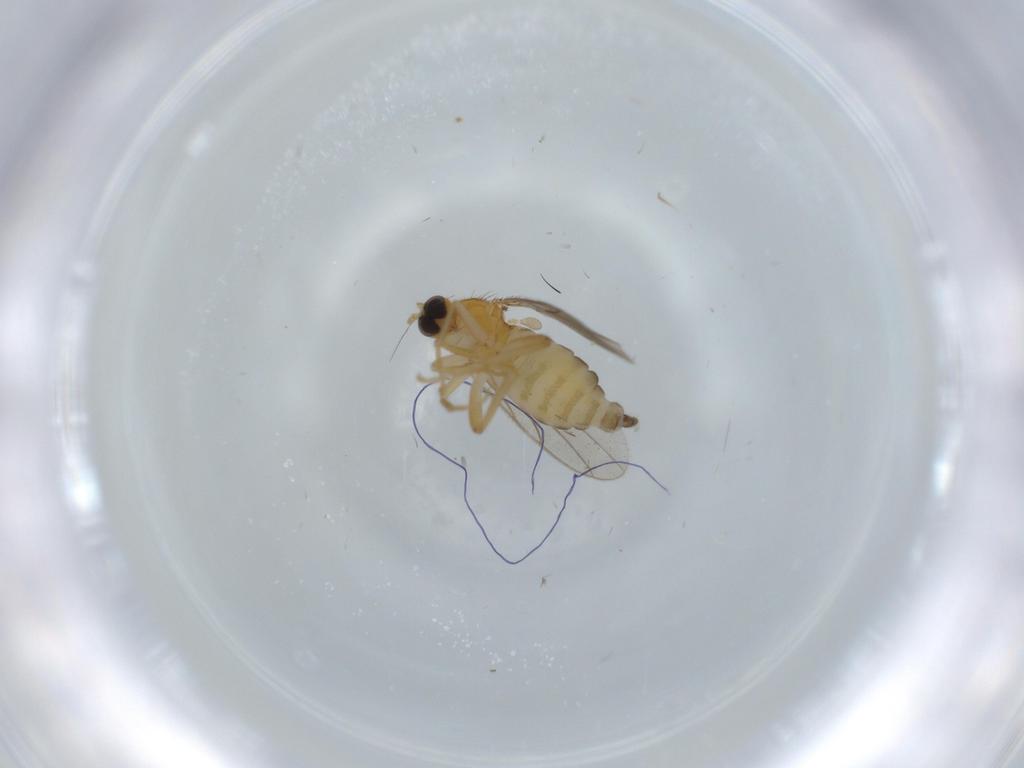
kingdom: Animalia
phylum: Arthropoda
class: Insecta
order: Diptera
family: Hybotidae
